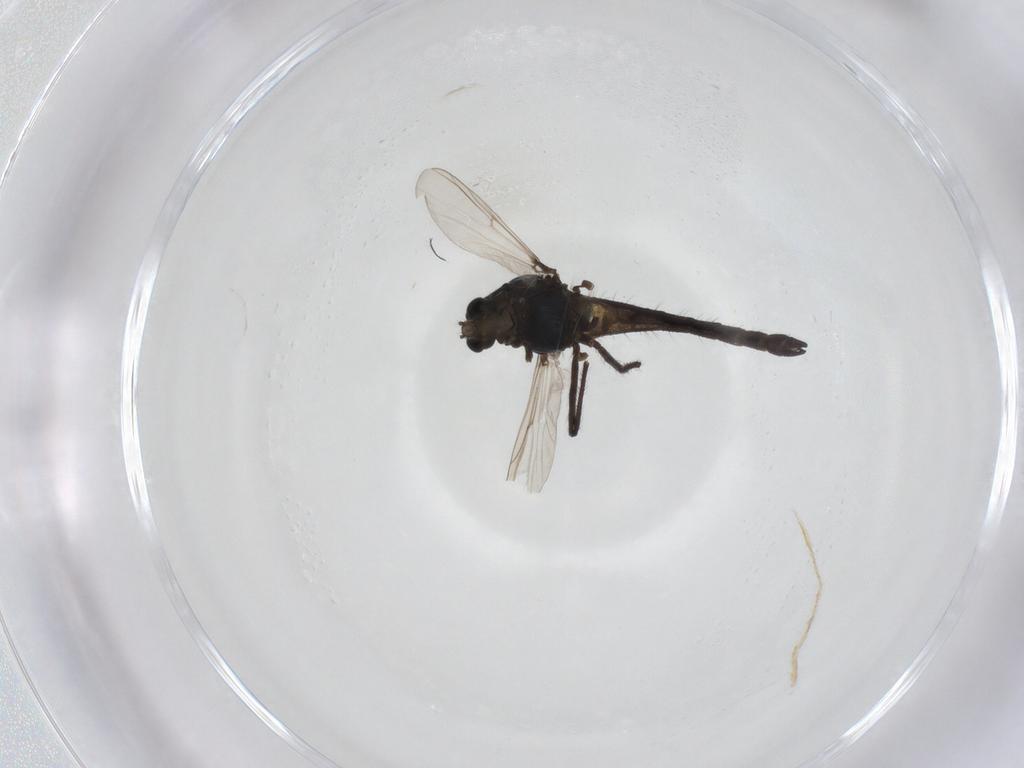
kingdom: Animalia
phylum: Arthropoda
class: Insecta
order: Diptera
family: Chironomidae
